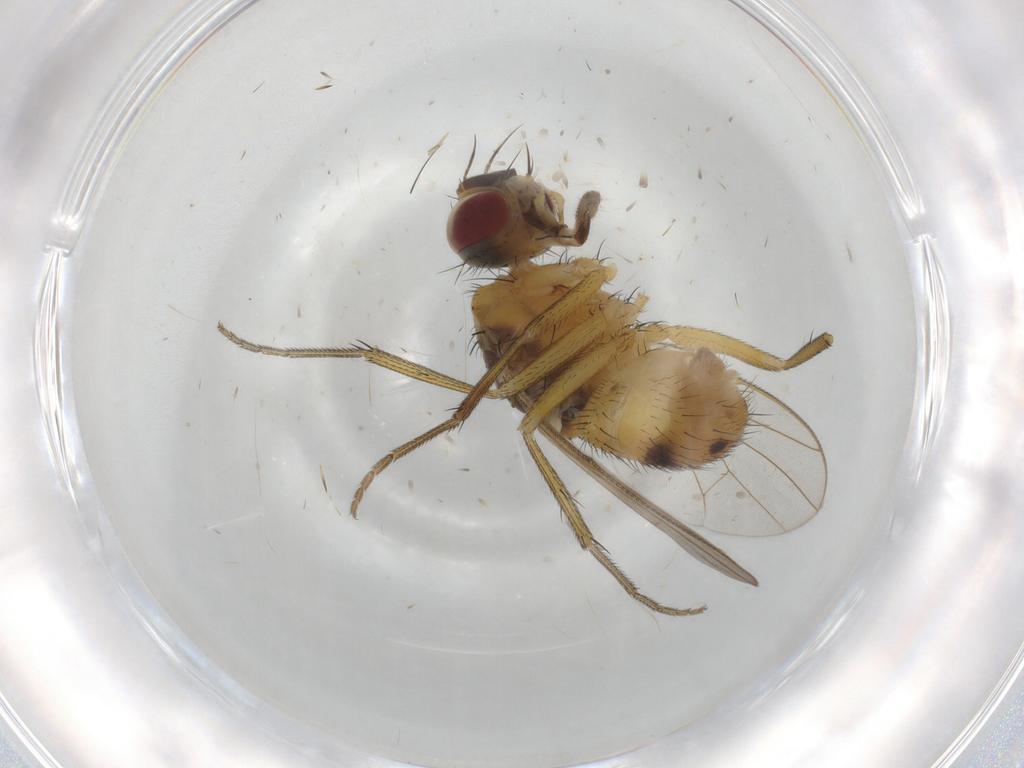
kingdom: Animalia
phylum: Arthropoda
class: Insecta
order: Diptera
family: Muscidae
